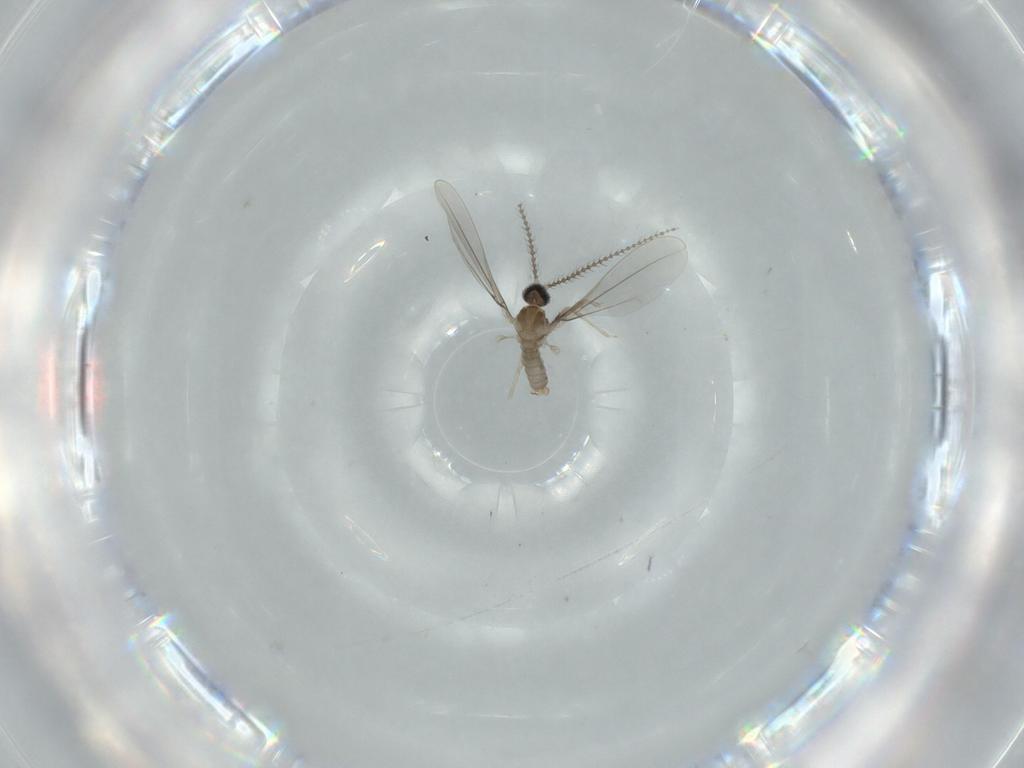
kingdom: Animalia
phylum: Arthropoda
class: Insecta
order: Diptera
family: Cecidomyiidae
